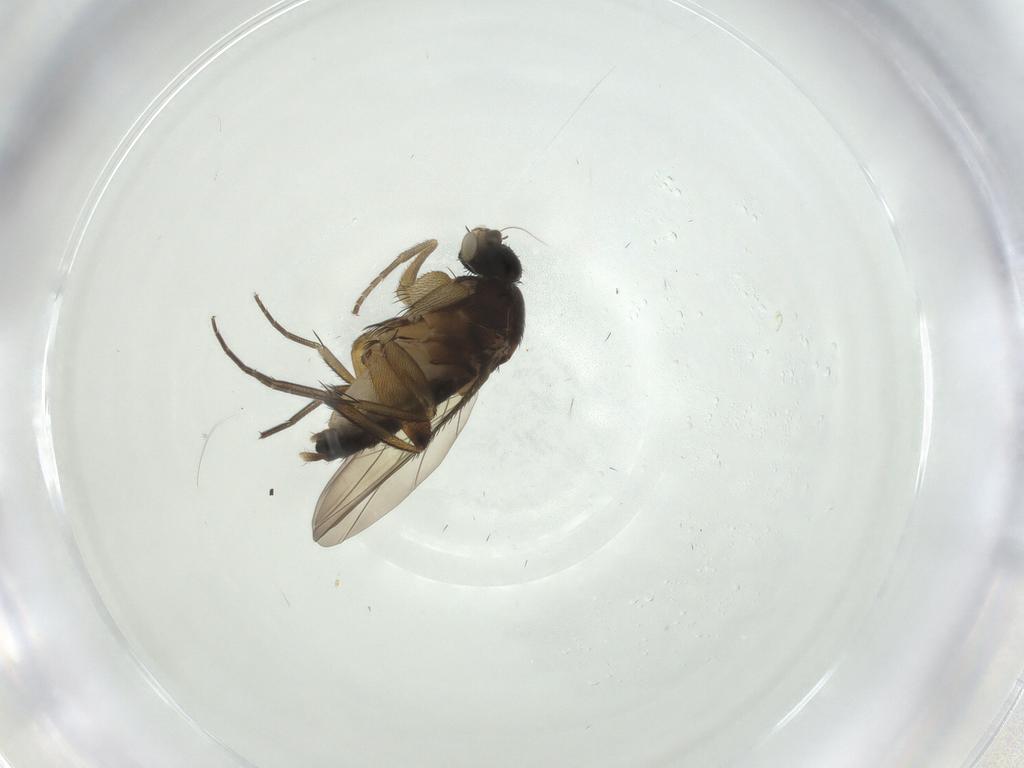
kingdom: Animalia
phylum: Arthropoda
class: Insecta
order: Diptera
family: Phoridae
